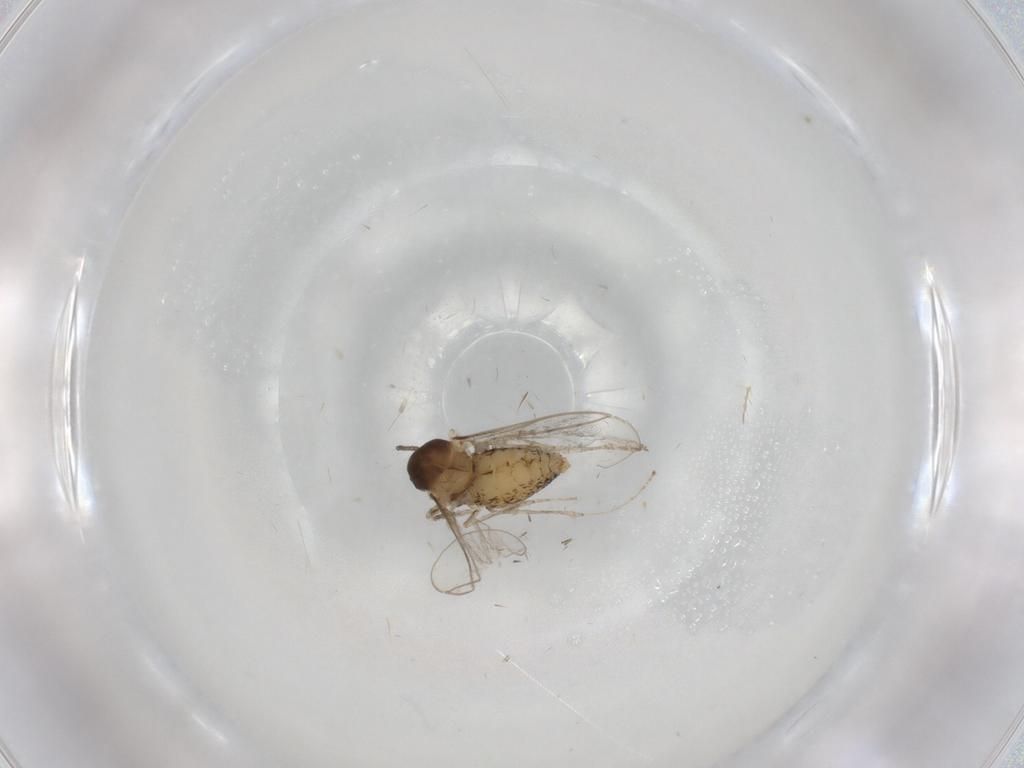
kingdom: Animalia
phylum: Arthropoda
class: Insecta
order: Diptera
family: Cecidomyiidae
